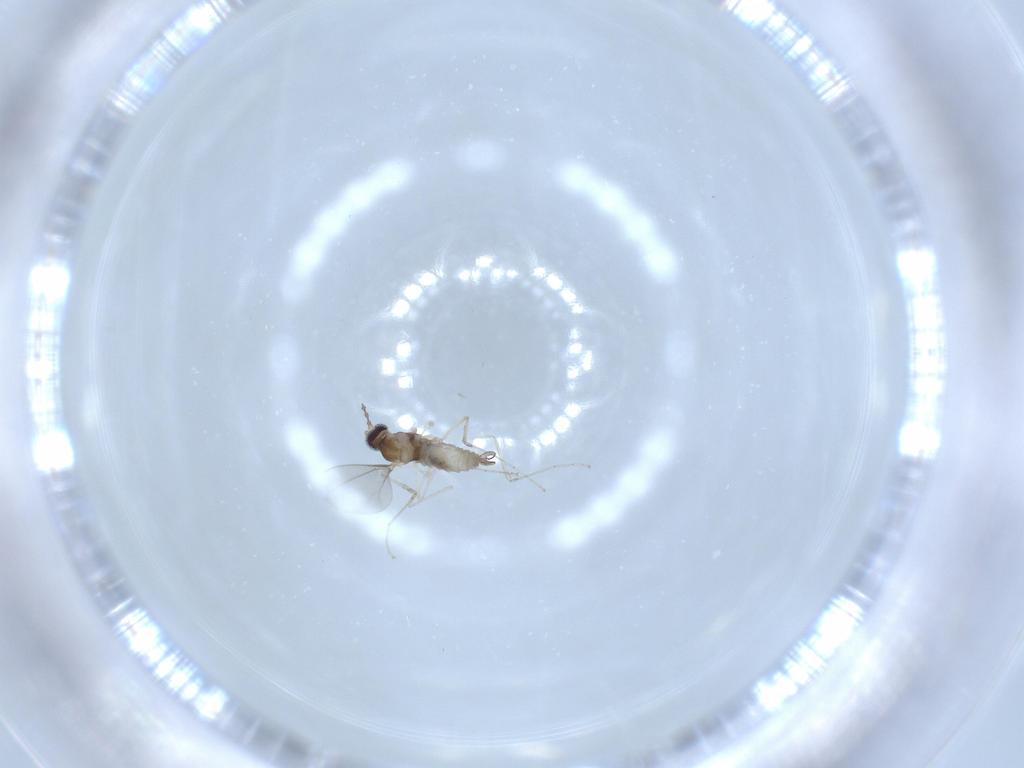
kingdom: Animalia
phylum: Arthropoda
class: Insecta
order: Diptera
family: Cecidomyiidae
